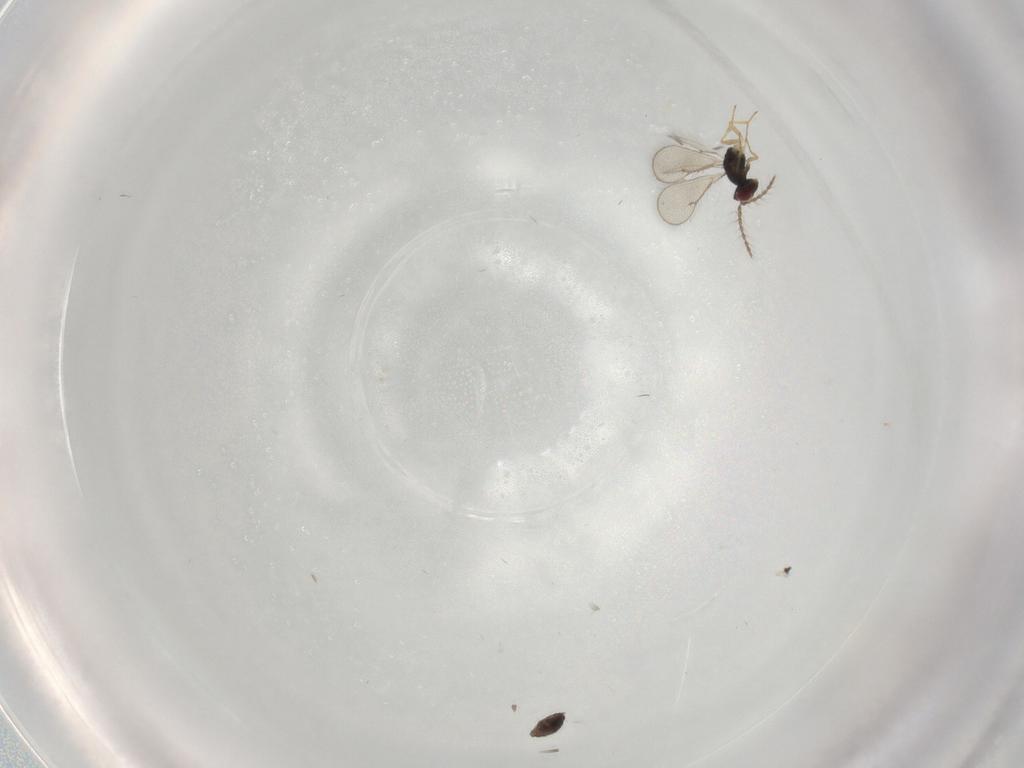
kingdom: Animalia
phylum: Arthropoda
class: Insecta
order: Hymenoptera
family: Eulophidae
